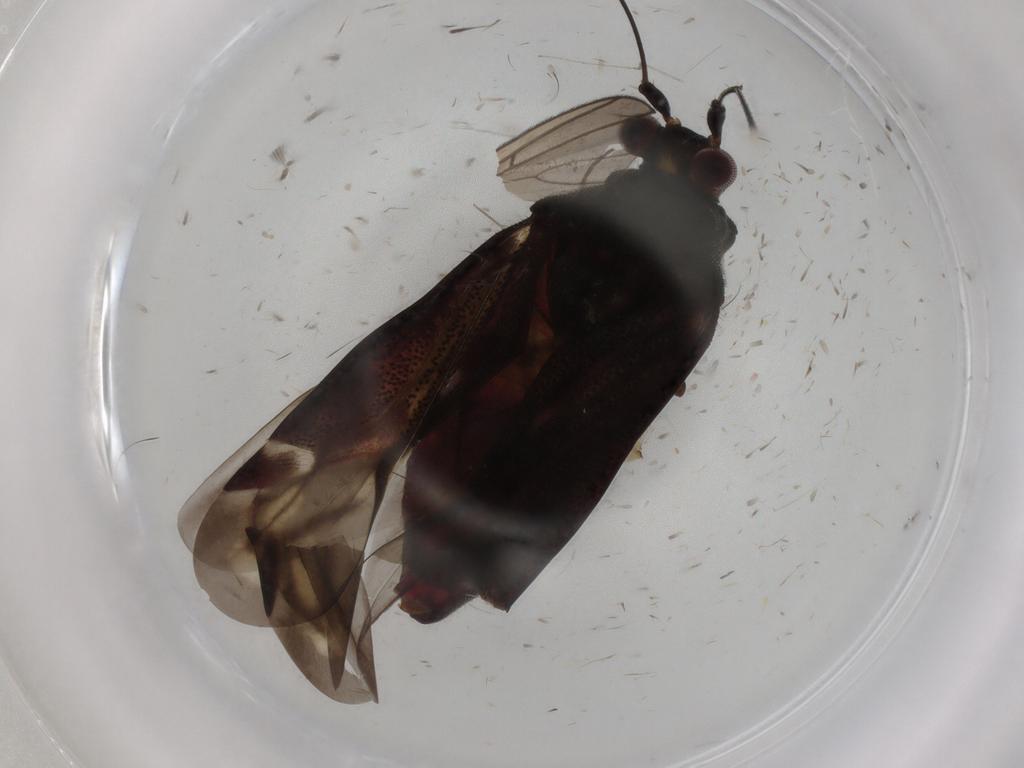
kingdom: Animalia
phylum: Arthropoda
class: Insecta
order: Hemiptera
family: Miridae
